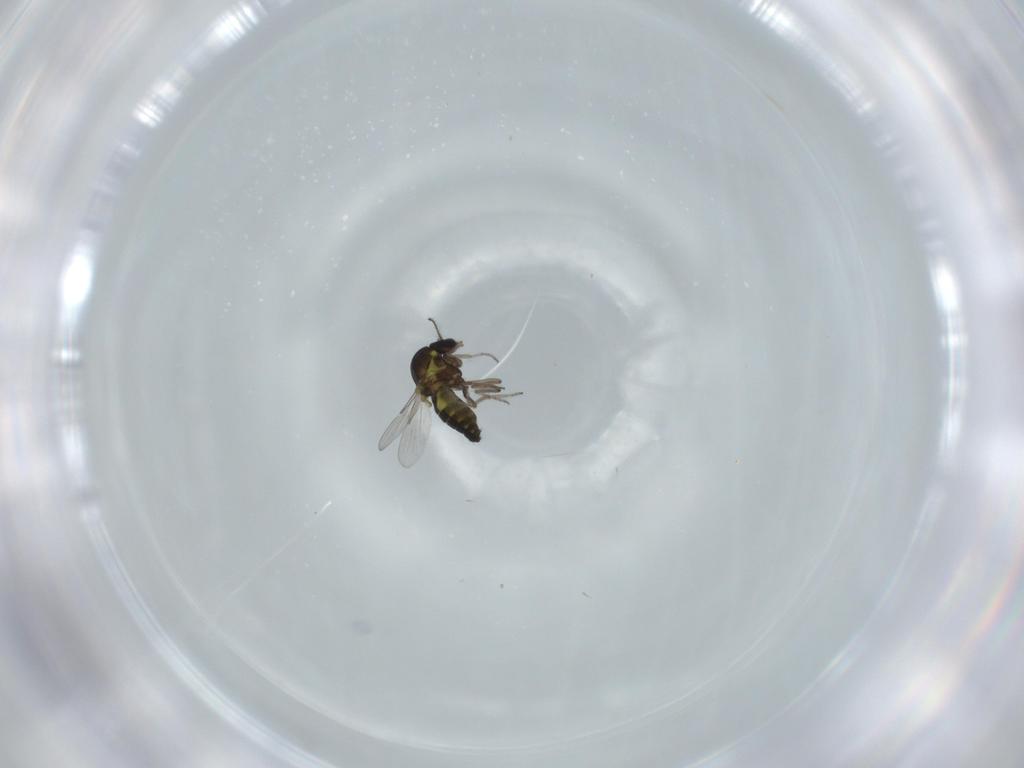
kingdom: Animalia
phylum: Arthropoda
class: Insecta
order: Diptera
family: Ceratopogonidae
